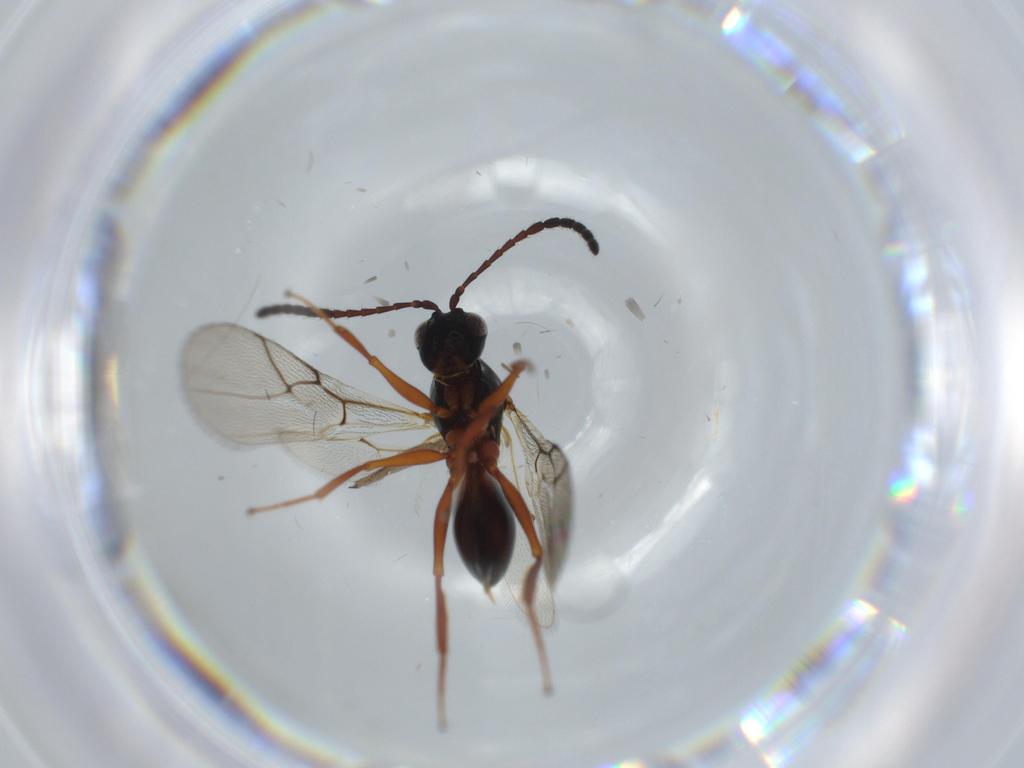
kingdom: Animalia
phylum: Arthropoda
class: Insecta
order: Hymenoptera
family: Figitidae
